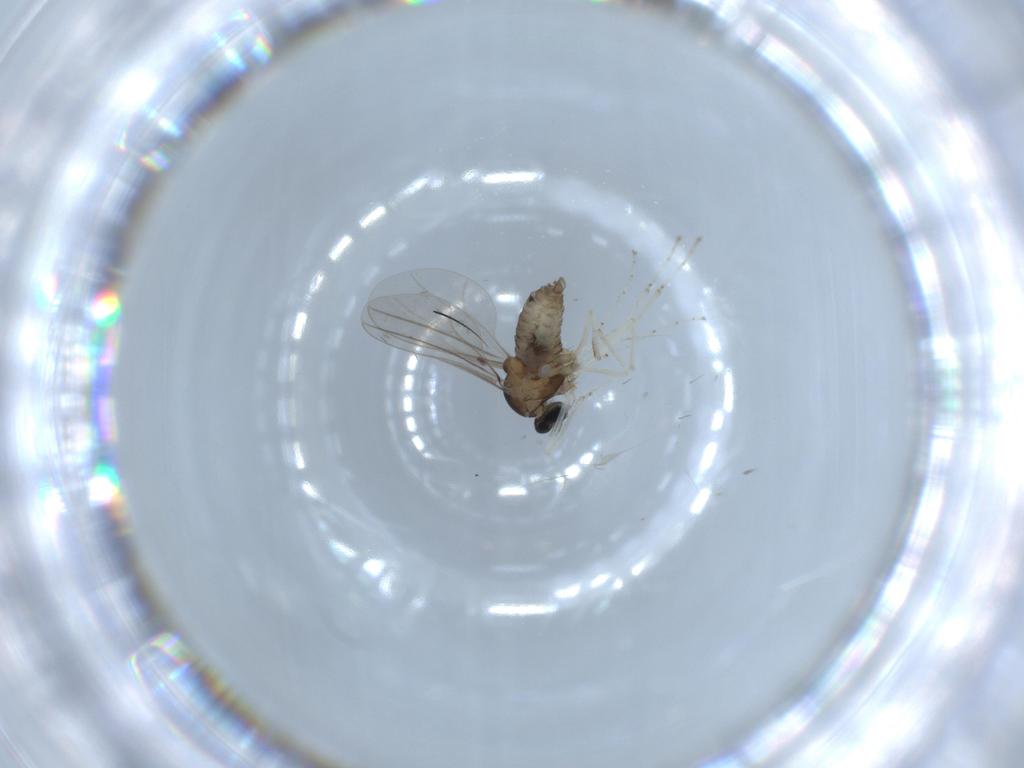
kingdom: Animalia
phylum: Arthropoda
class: Insecta
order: Diptera
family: Cecidomyiidae
